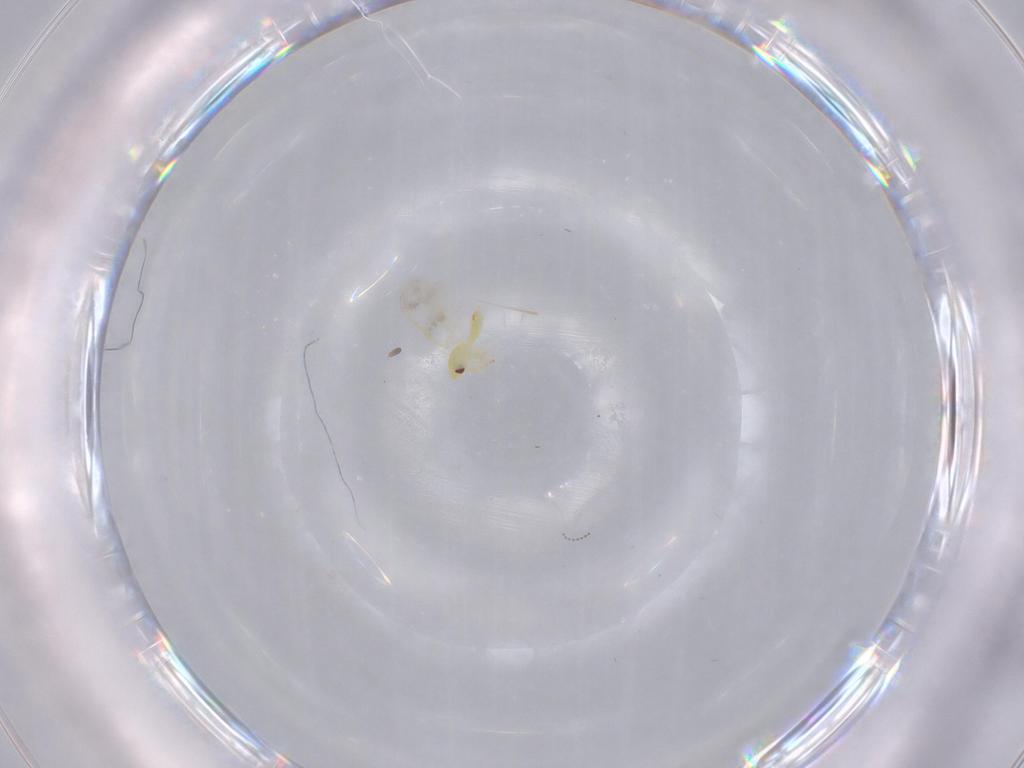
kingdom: Animalia
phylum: Arthropoda
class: Insecta
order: Hemiptera
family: Aleyrodidae
